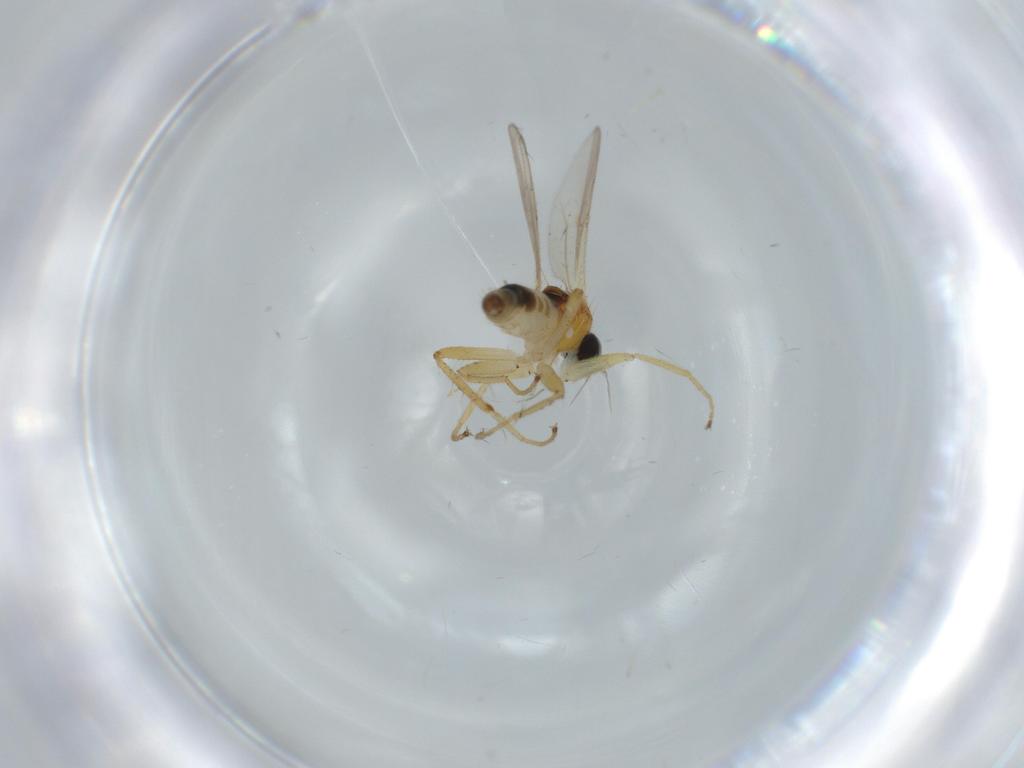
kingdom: Animalia
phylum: Arthropoda
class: Insecta
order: Diptera
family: Hybotidae
